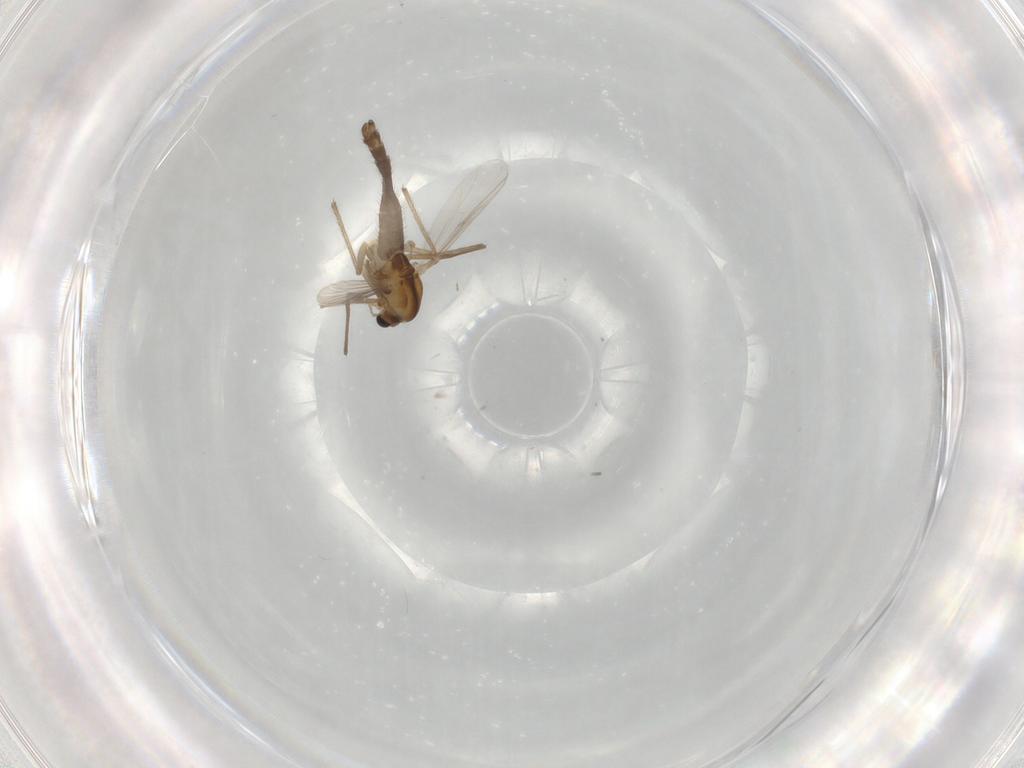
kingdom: Animalia
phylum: Arthropoda
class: Insecta
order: Diptera
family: Chironomidae
